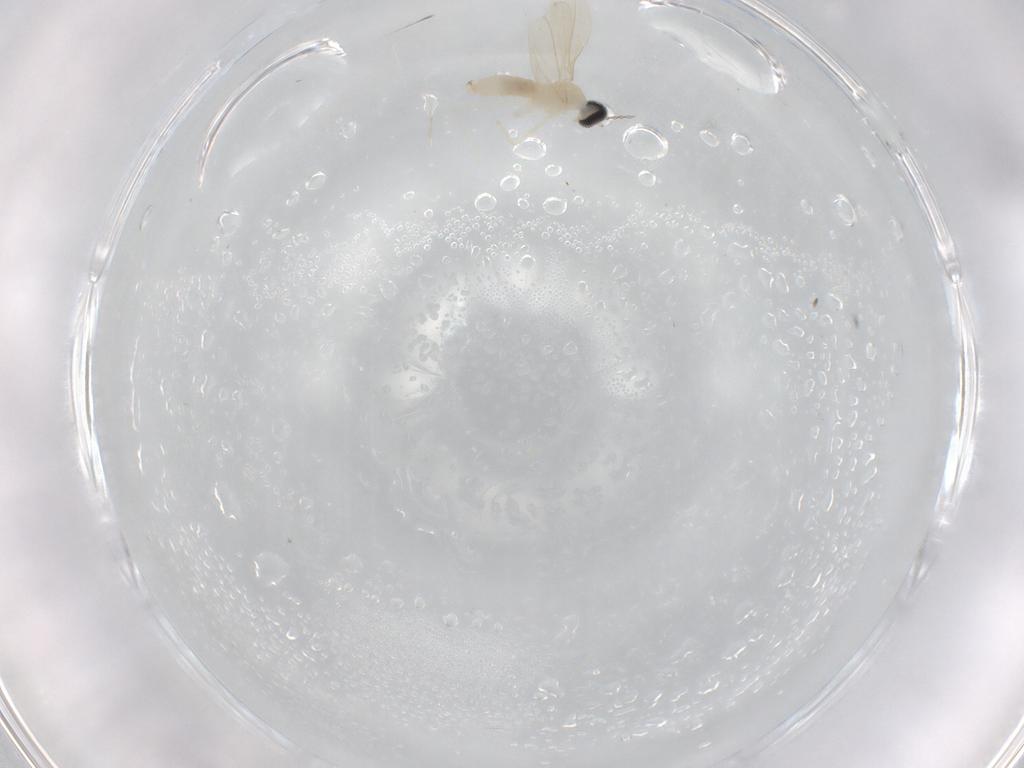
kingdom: Animalia
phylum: Arthropoda
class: Insecta
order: Diptera
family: Cecidomyiidae
